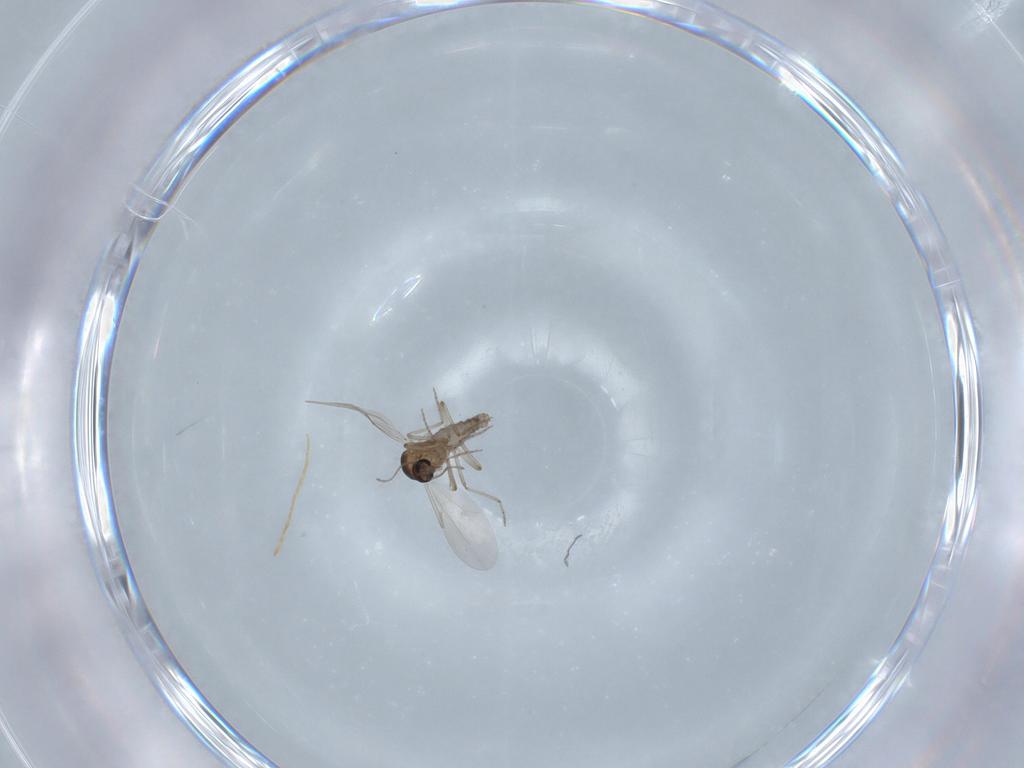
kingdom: Animalia
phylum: Arthropoda
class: Insecta
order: Diptera
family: Ceratopogonidae
